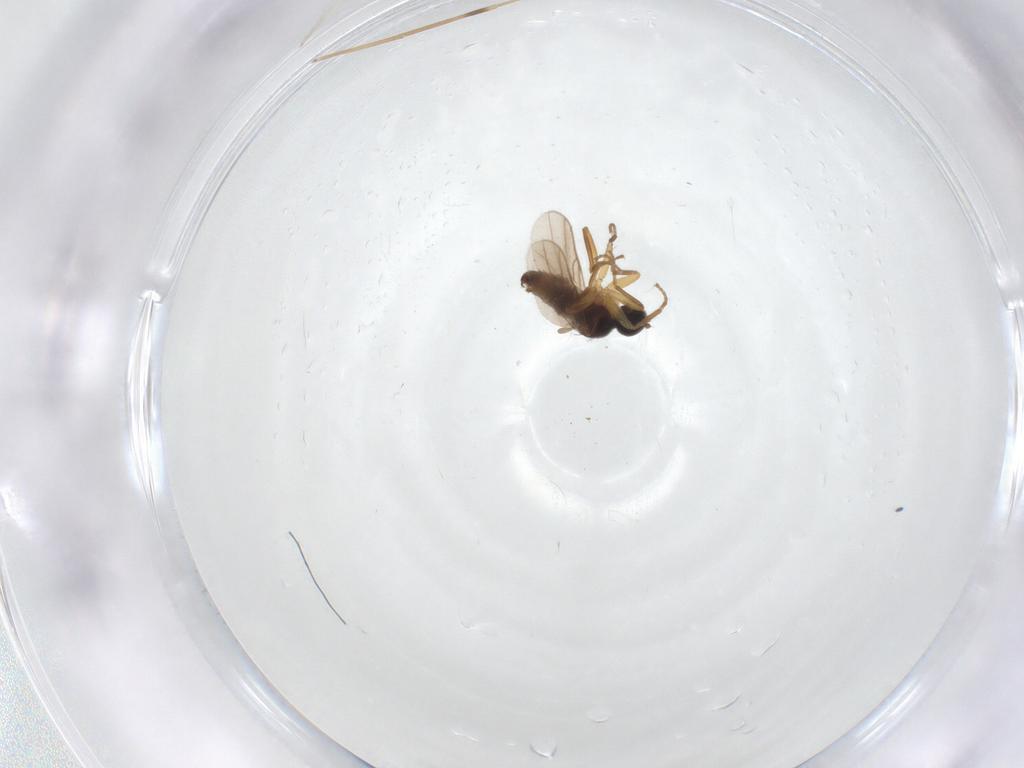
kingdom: Animalia
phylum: Arthropoda
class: Insecta
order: Diptera
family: Hybotidae
